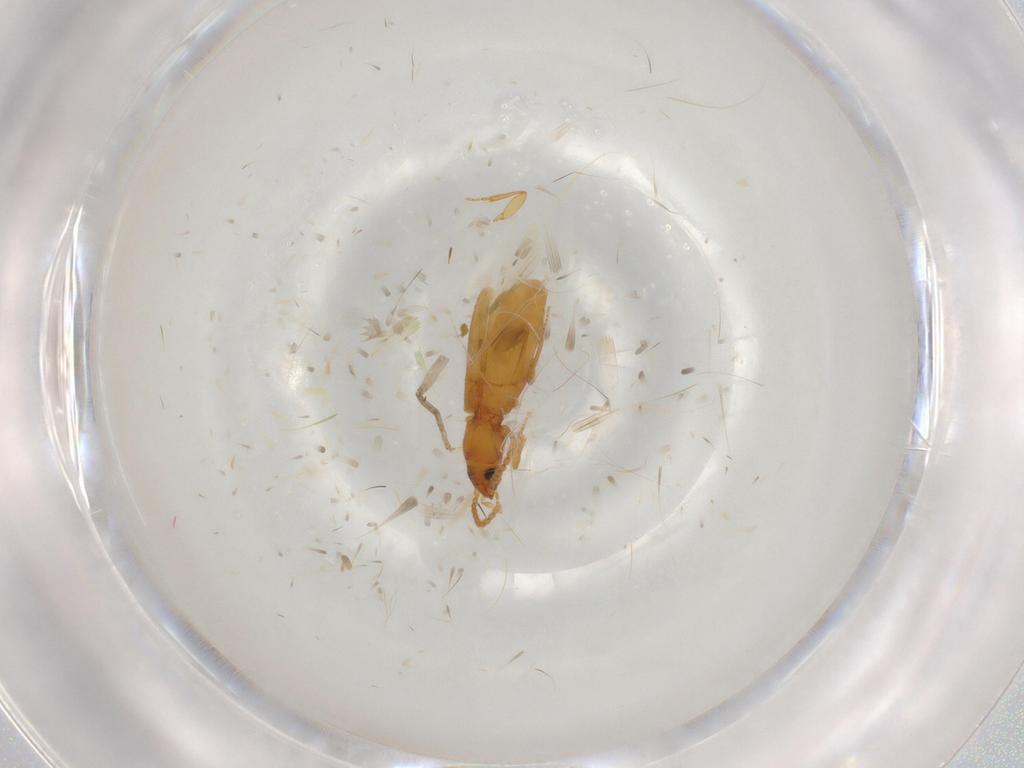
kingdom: Animalia
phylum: Arthropoda
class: Insecta
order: Coleoptera
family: Carabidae
